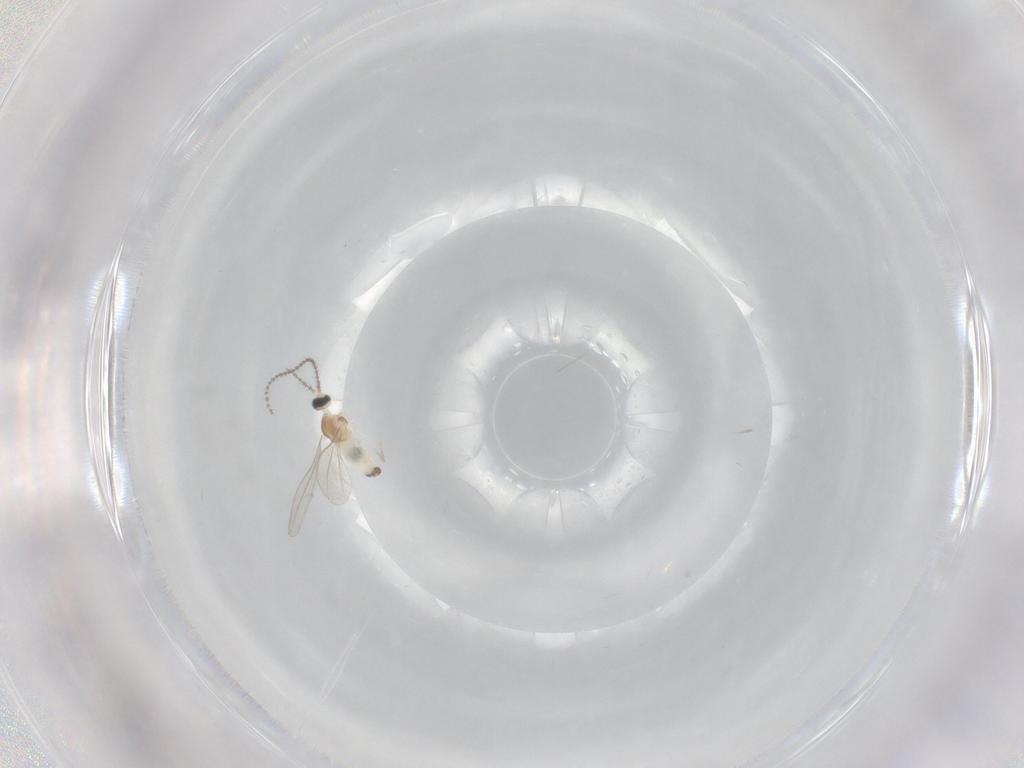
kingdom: Animalia
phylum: Arthropoda
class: Insecta
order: Diptera
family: Cecidomyiidae
